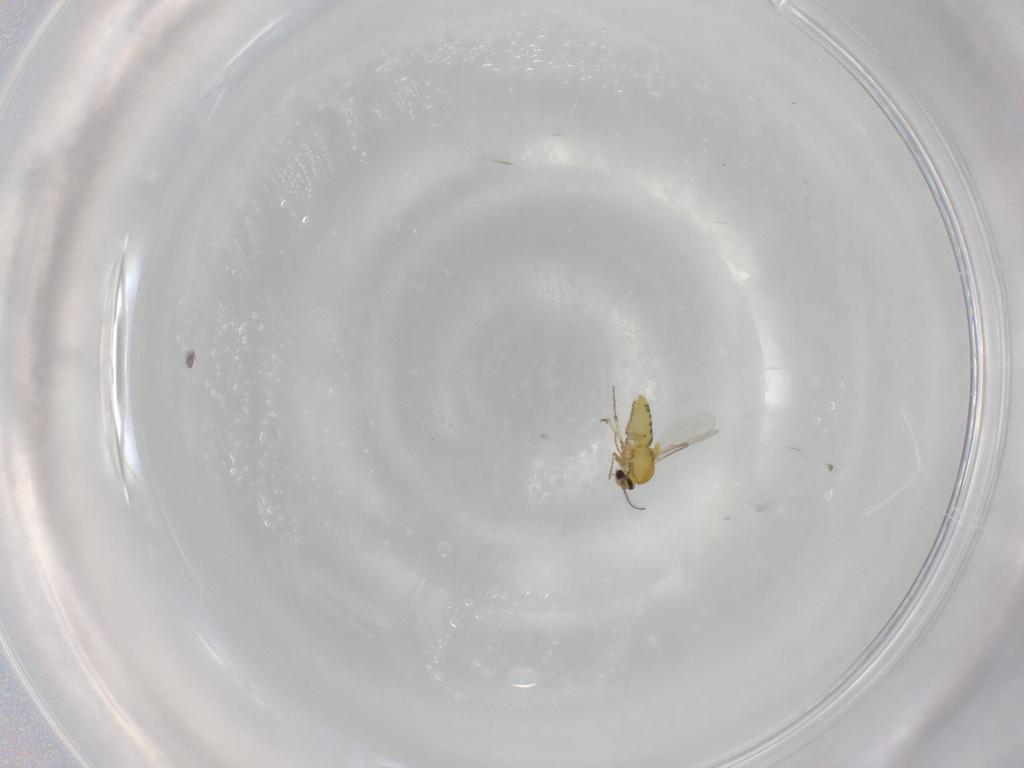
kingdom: Animalia
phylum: Arthropoda
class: Insecta
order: Diptera
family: Ceratopogonidae
